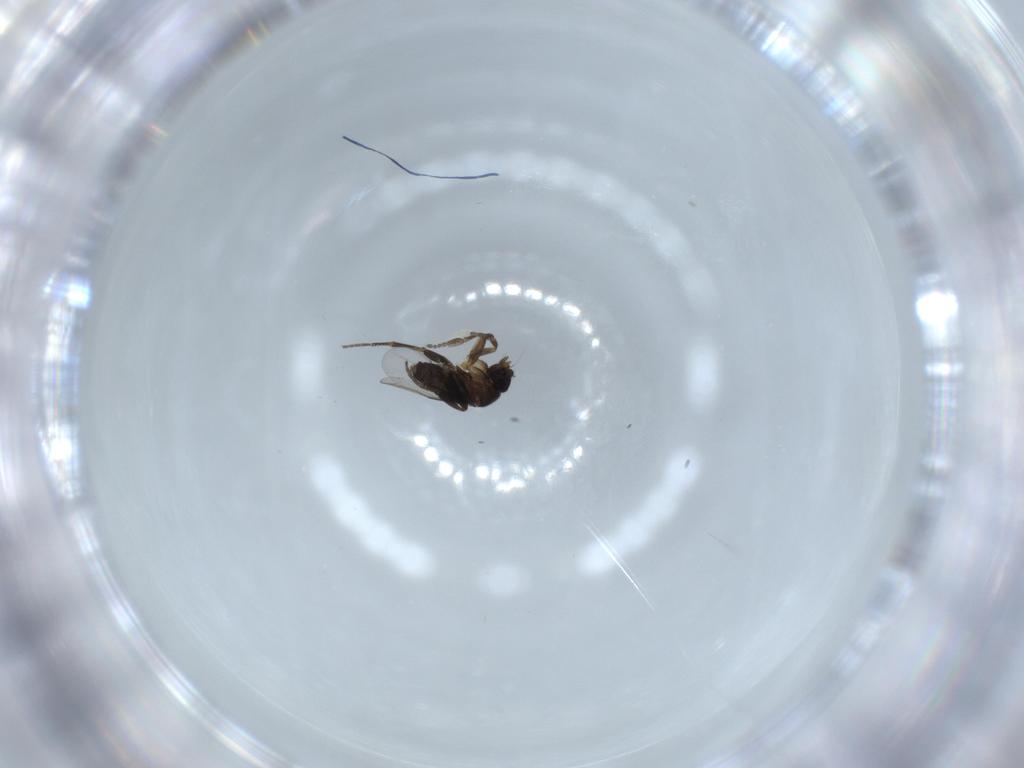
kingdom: Animalia
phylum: Arthropoda
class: Insecta
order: Diptera
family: Phoridae
